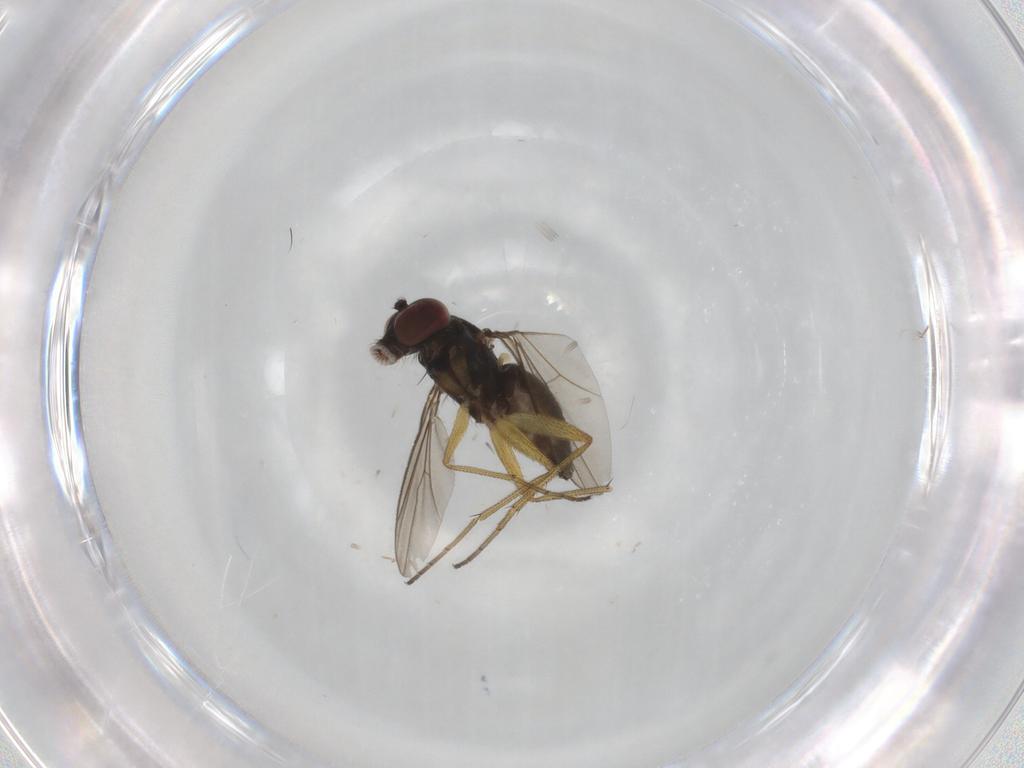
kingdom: Animalia
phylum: Arthropoda
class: Insecta
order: Diptera
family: Dolichopodidae
